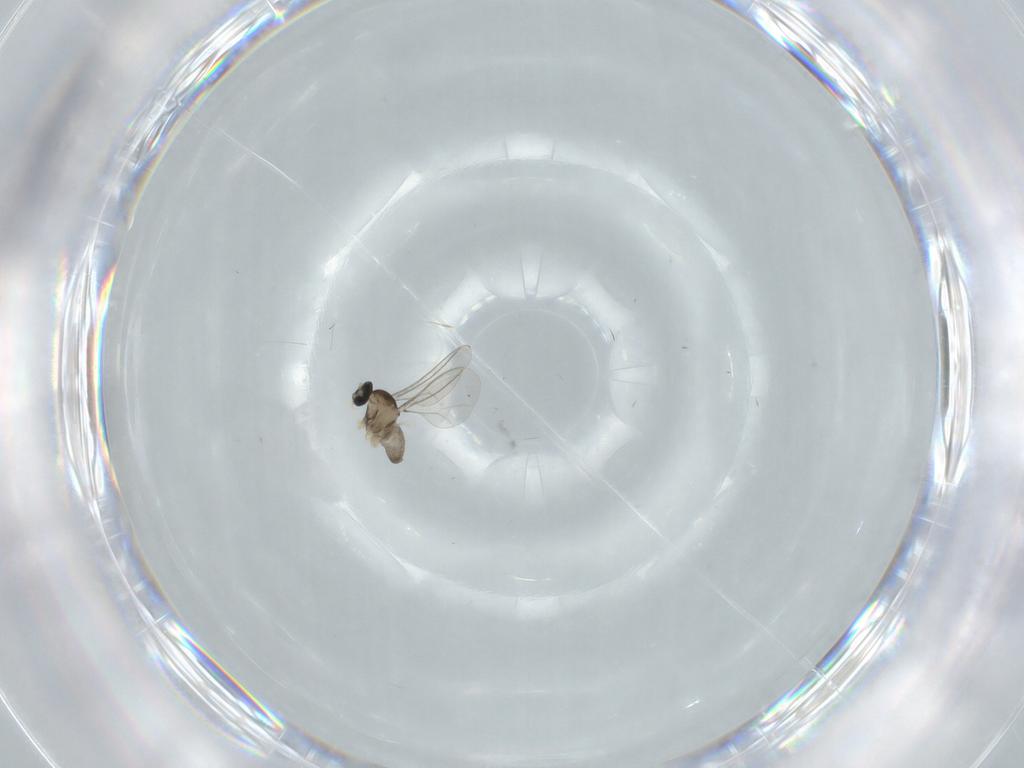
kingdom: Animalia
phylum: Arthropoda
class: Insecta
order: Diptera
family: Cecidomyiidae
